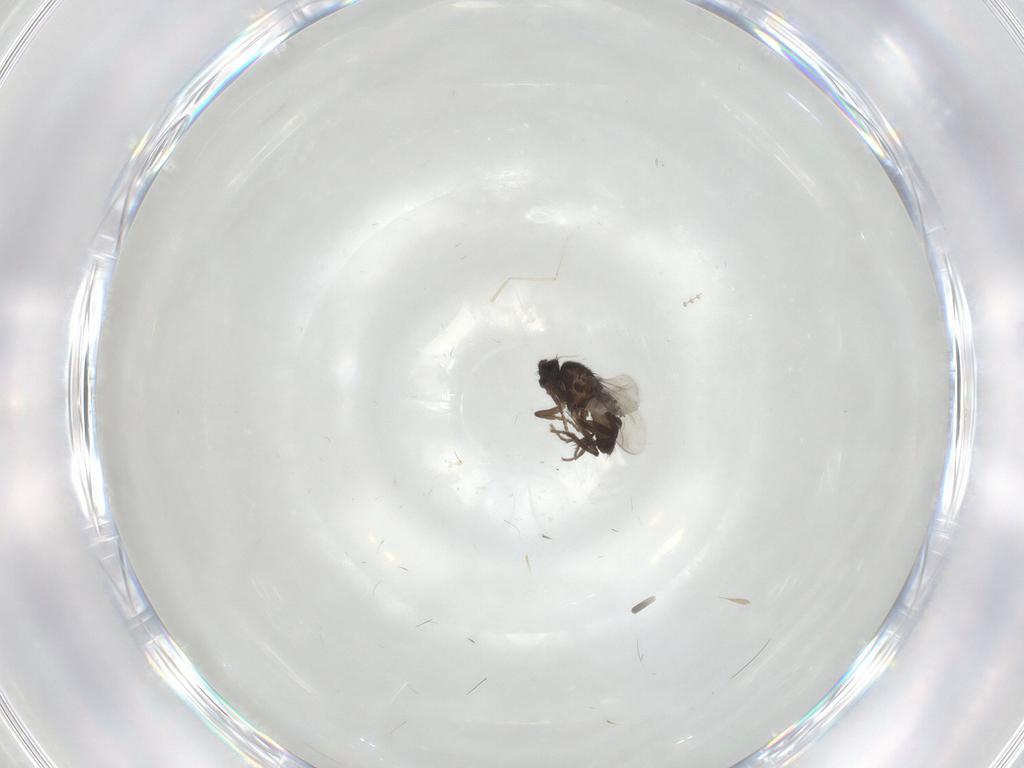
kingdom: Animalia
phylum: Arthropoda
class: Insecta
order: Diptera
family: Cecidomyiidae
